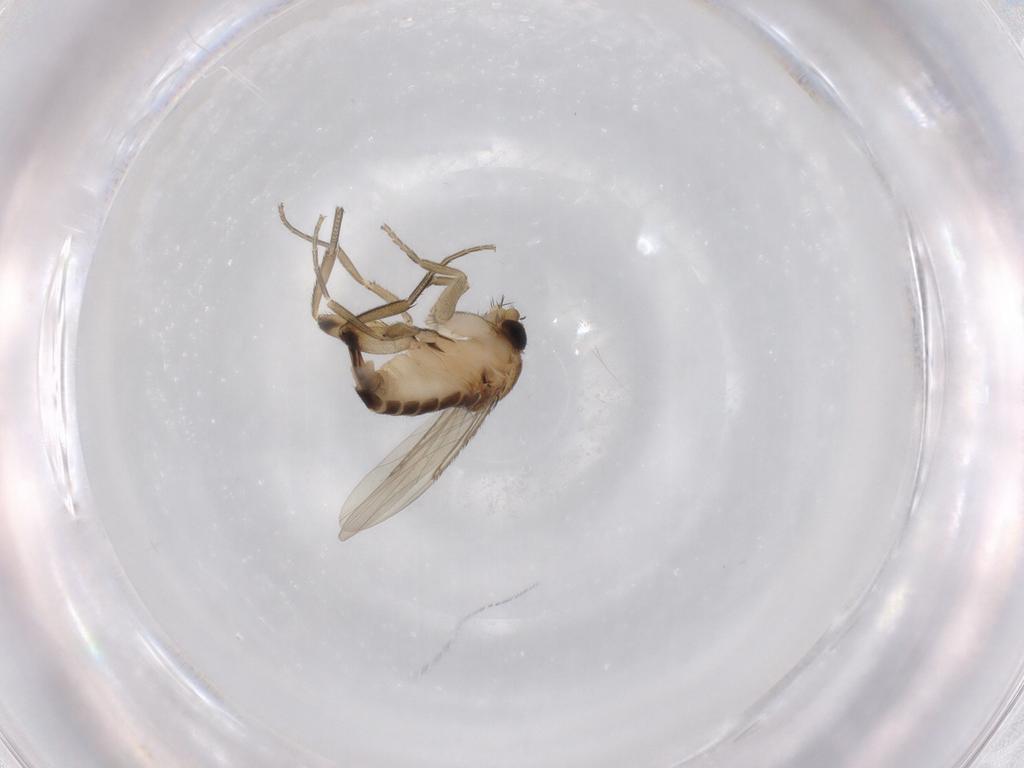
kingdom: Animalia
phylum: Arthropoda
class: Insecta
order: Diptera
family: Phoridae
